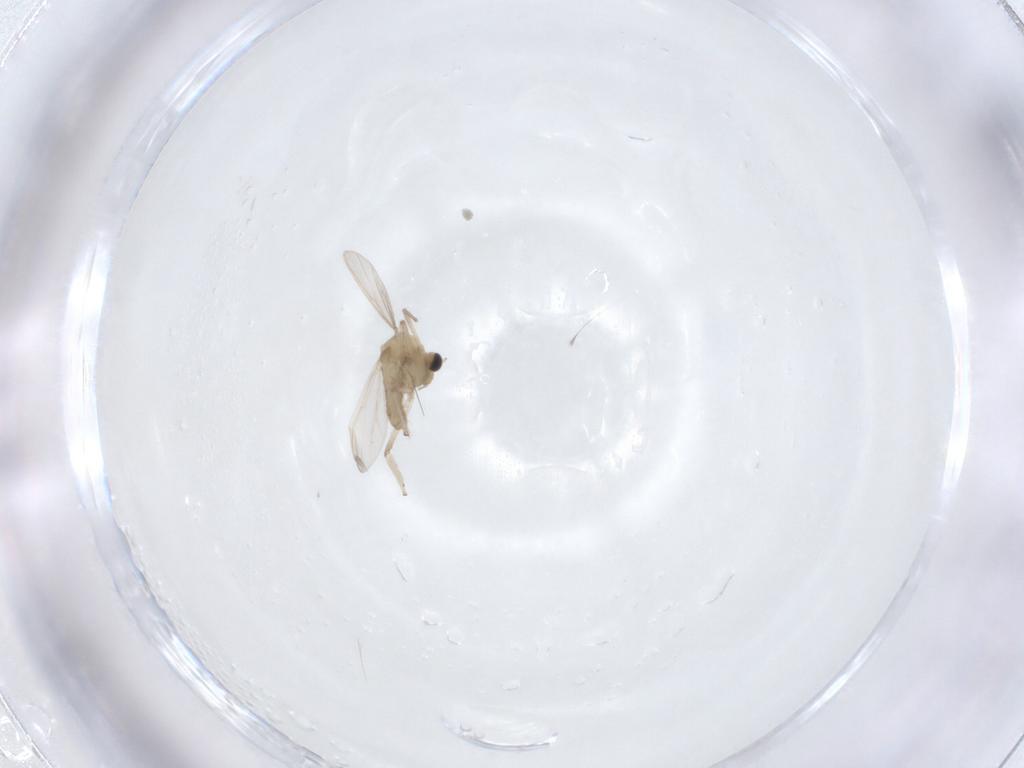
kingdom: Animalia
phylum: Arthropoda
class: Insecta
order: Diptera
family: Chironomidae
